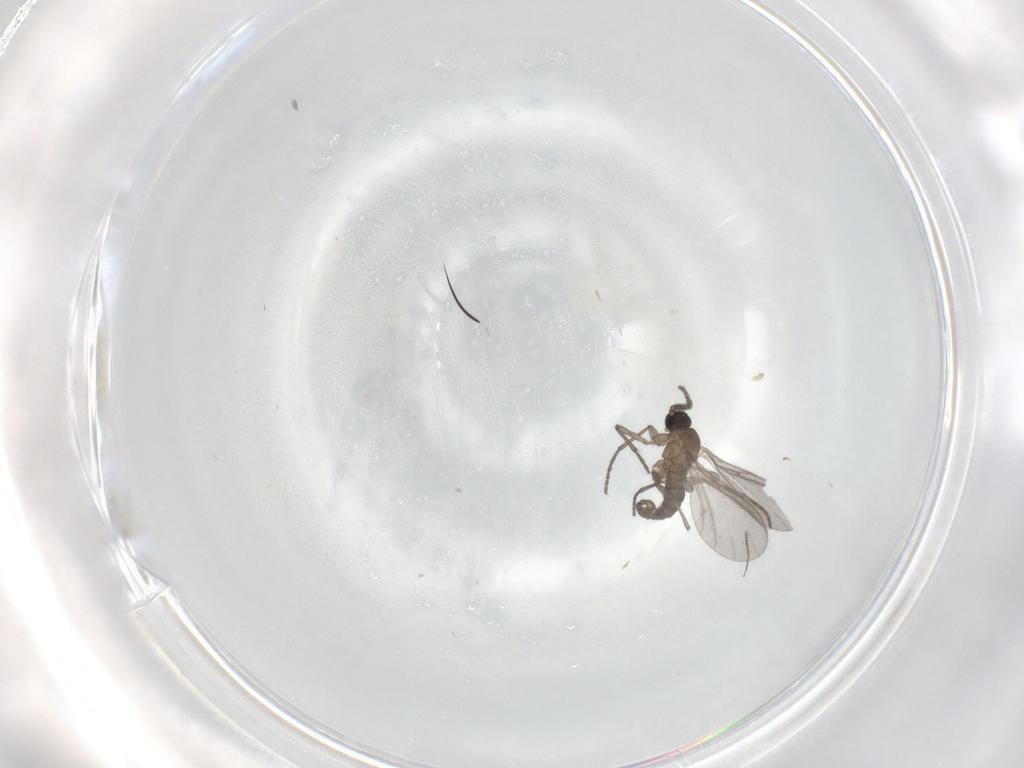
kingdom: Animalia
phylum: Arthropoda
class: Insecta
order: Diptera
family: Sciaridae
